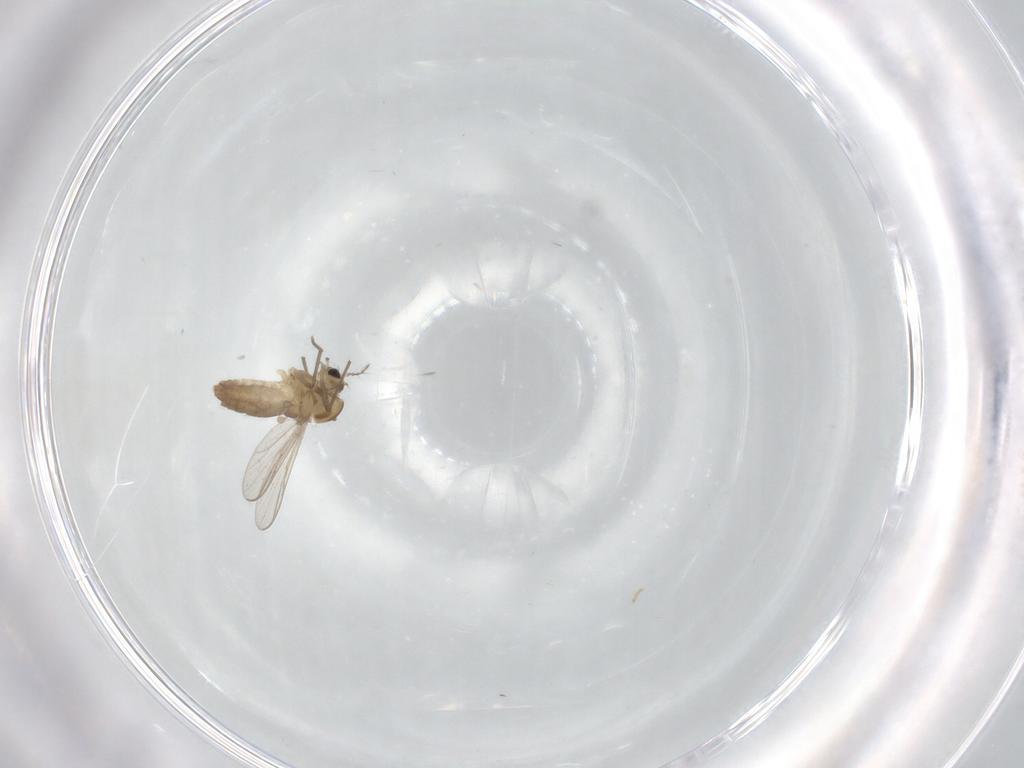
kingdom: Animalia
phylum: Arthropoda
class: Insecta
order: Diptera
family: Chironomidae
